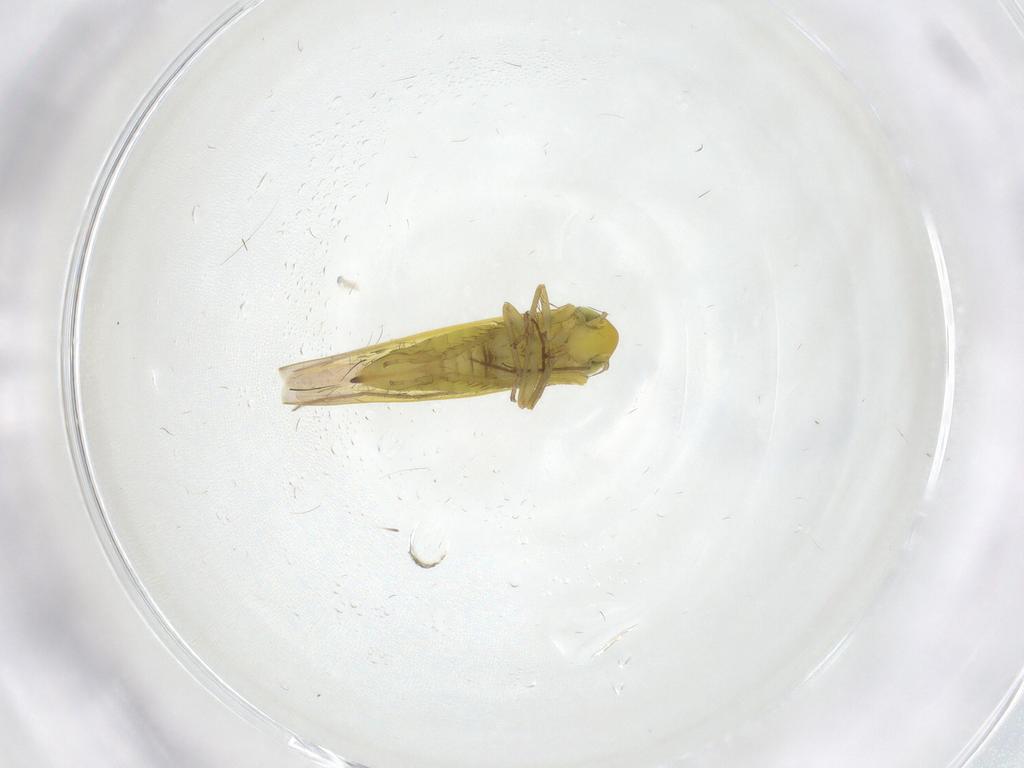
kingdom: Animalia
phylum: Arthropoda
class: Insecta
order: Hemiptera
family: Cicadellidae
